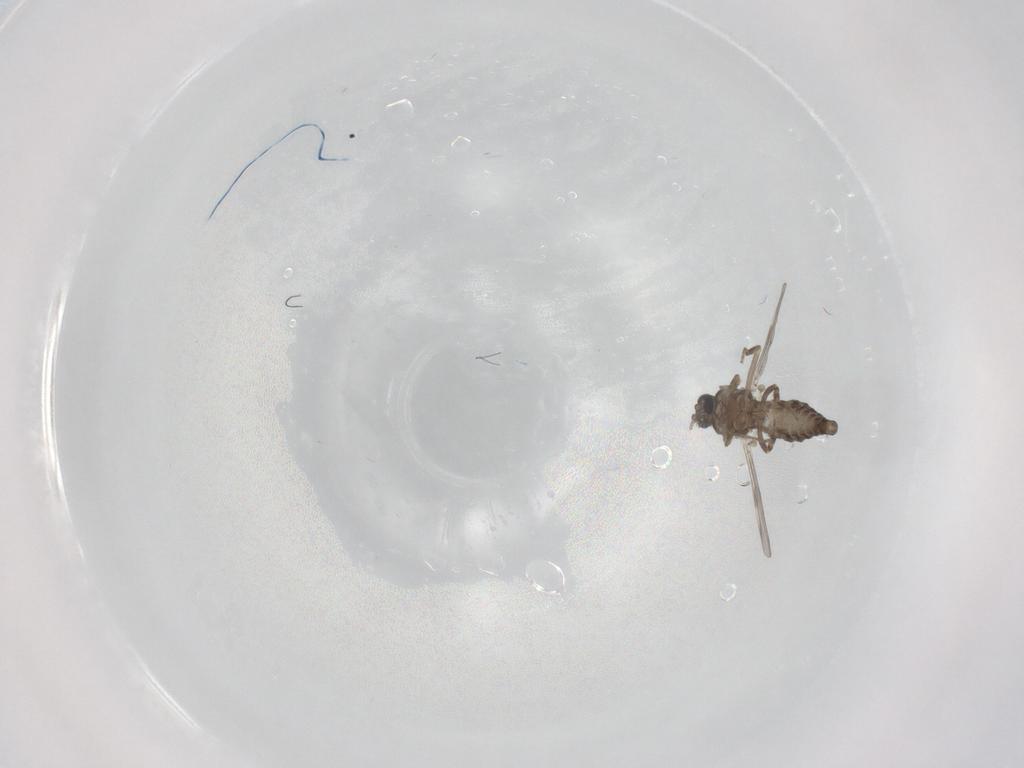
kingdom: Animalia
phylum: Arthropoda
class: Insecta
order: Diptera
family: Ceratopogonidae
